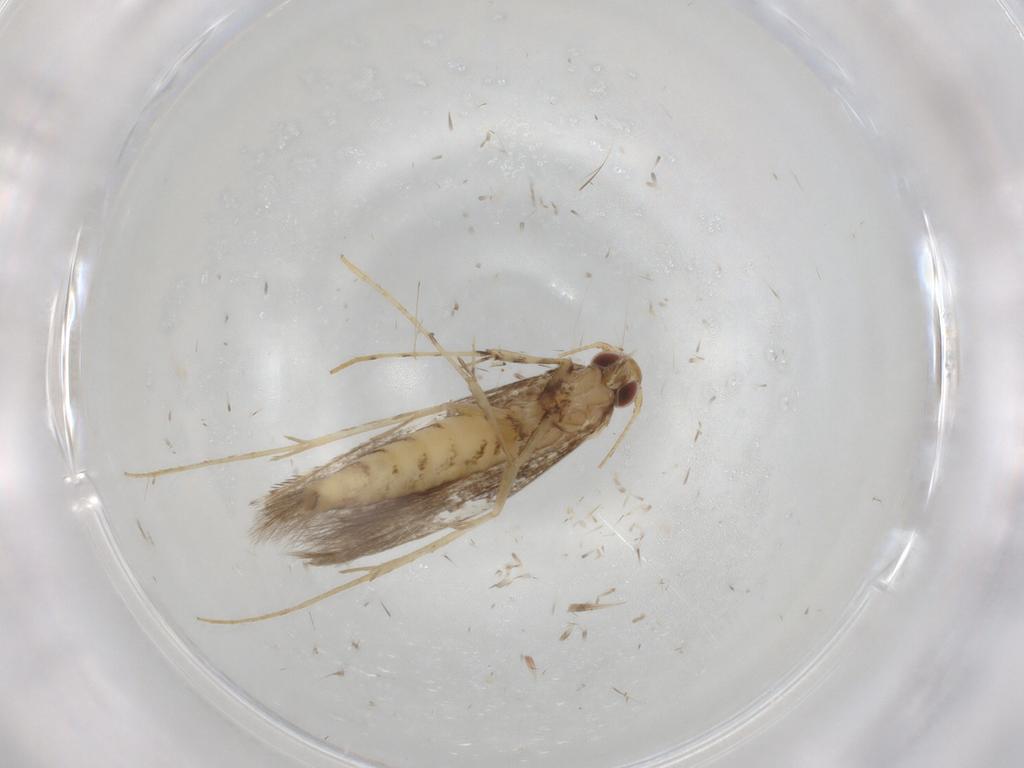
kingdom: Animalia
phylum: Arthropoda
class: Insecta
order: Lepidoptera
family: Gracillariidae
